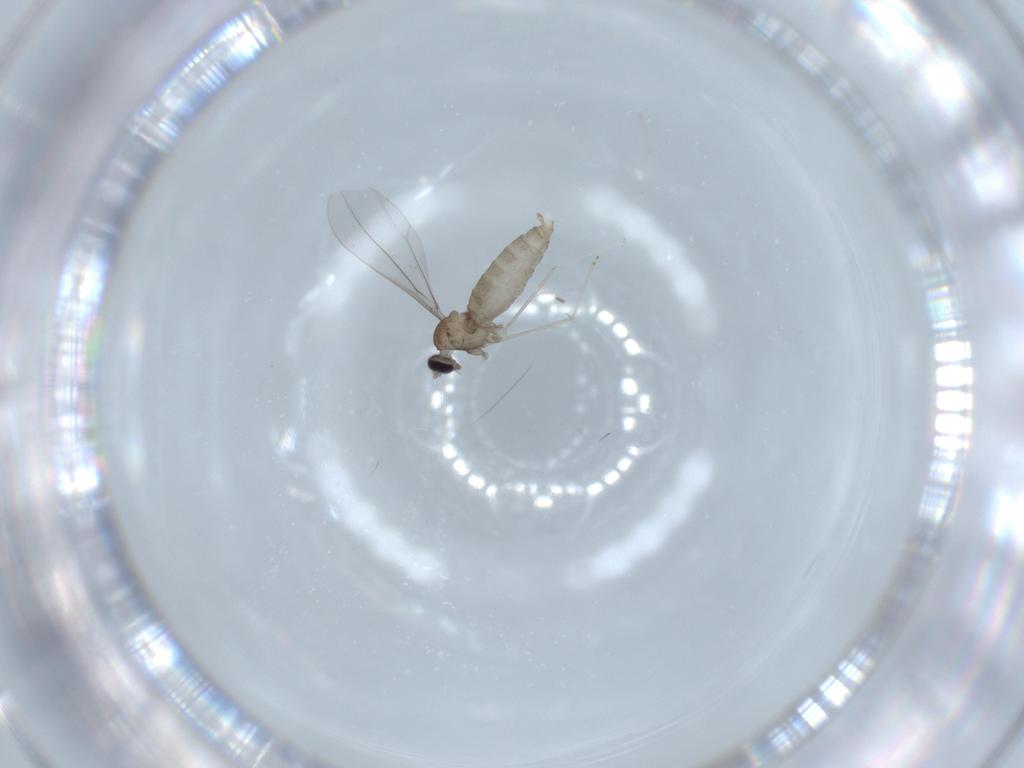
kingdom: Animalia
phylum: Arthropoda
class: Insecta
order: Diptera
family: Cecidomyiidae
